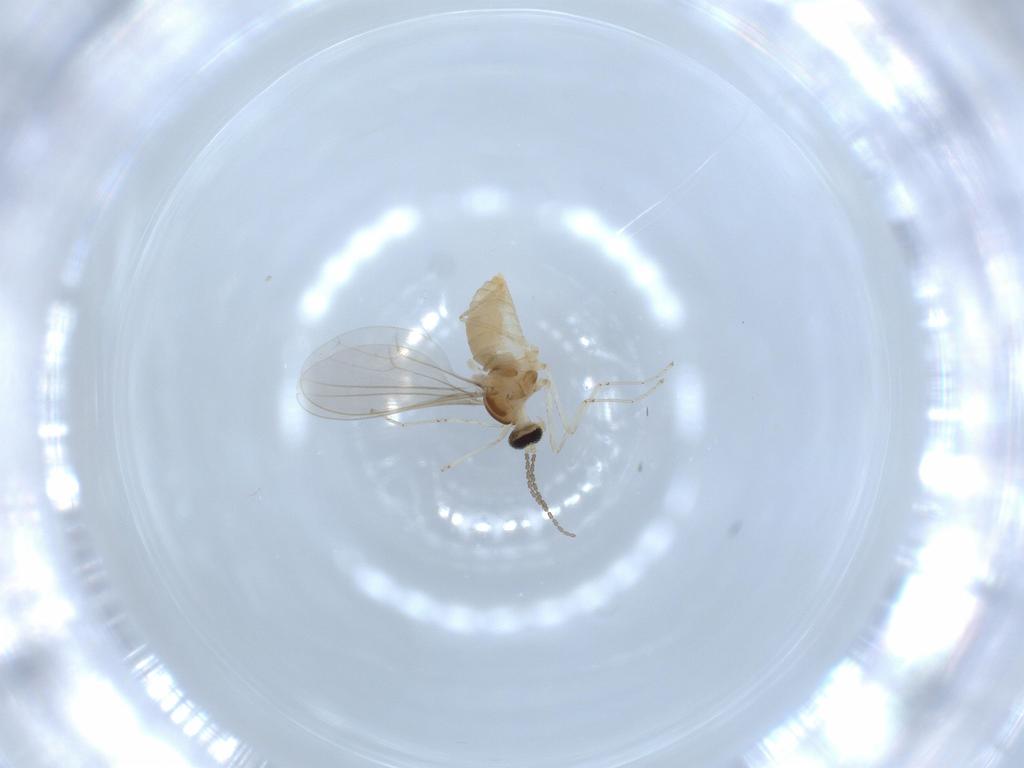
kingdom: Animalia
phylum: Arthropoda
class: Insecta
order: Diptera
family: Cecidomyiidae
